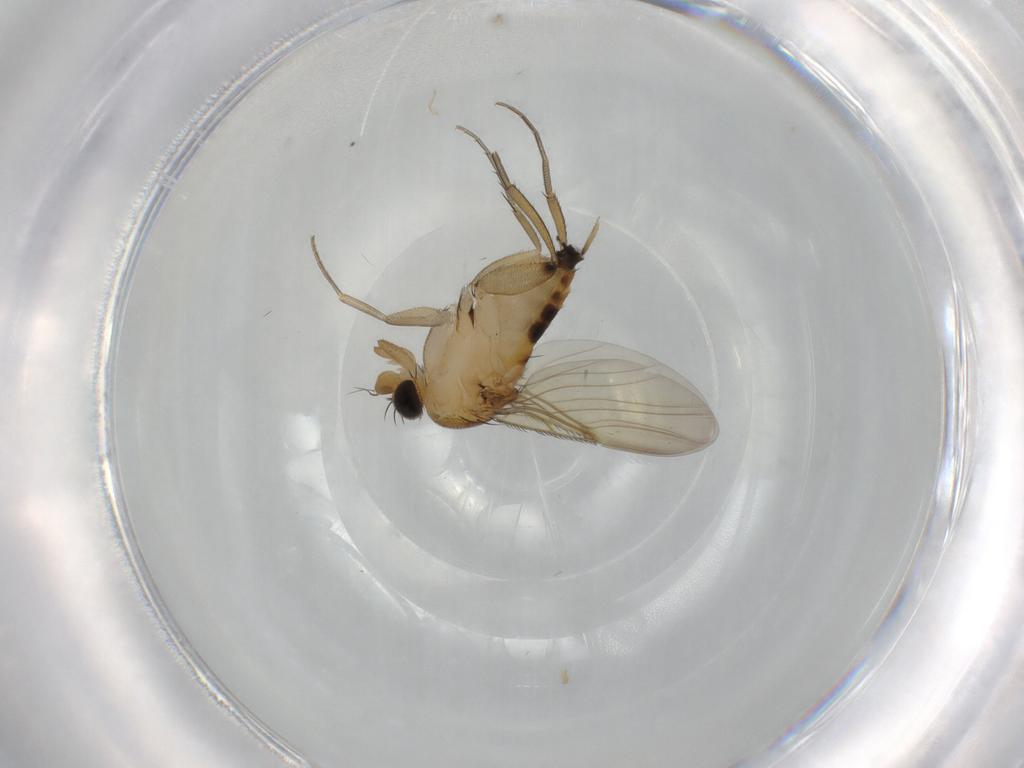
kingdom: Animalia
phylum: Arthropoda
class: Insecta
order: Diptera
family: Phoridae
